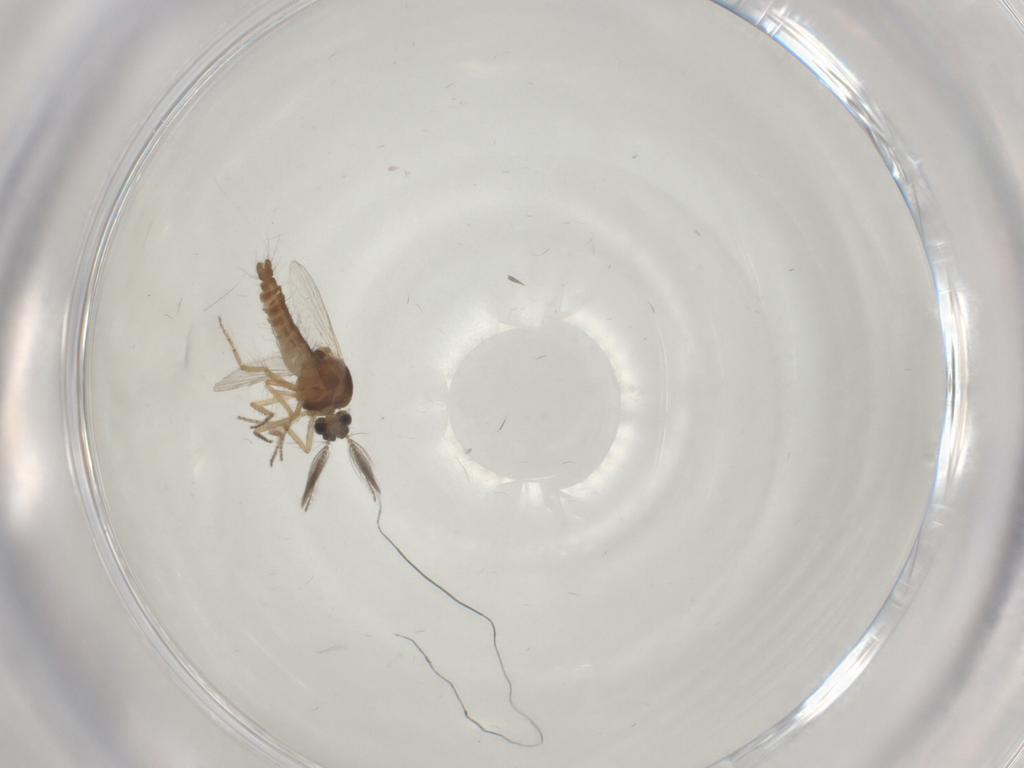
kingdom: Animalia
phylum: Arthropoda
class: Insecta
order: Diptera
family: Ceratopogonidae
